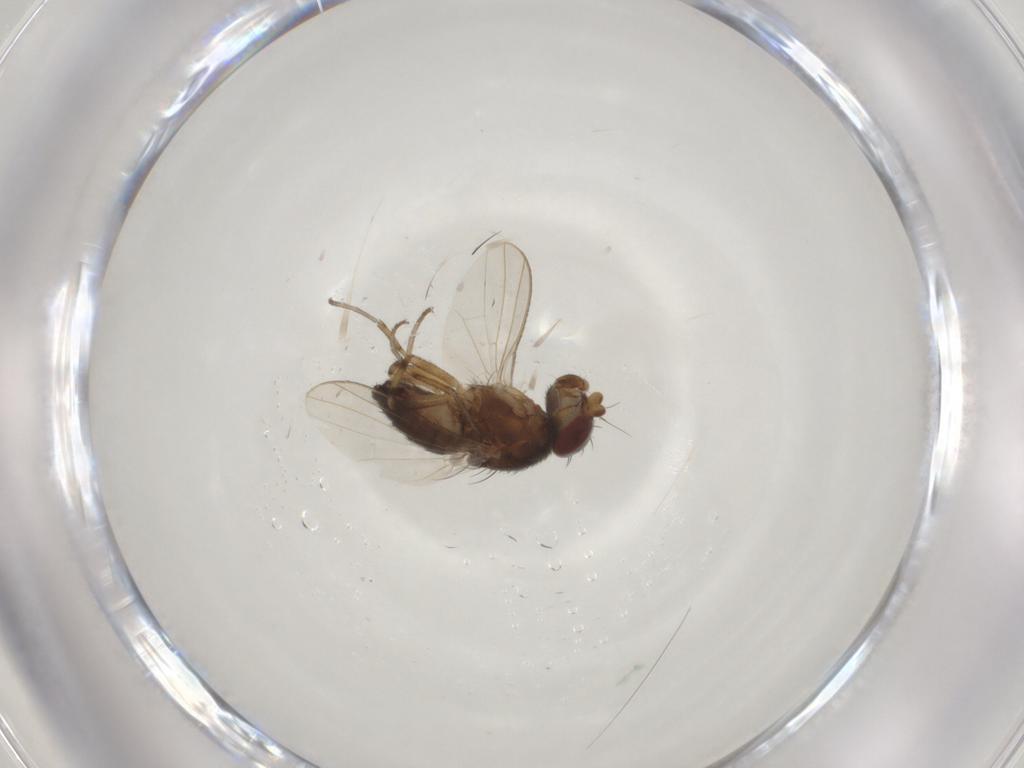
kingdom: Animalia
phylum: Arthropoda
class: Insecta
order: Diptera
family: Heleomyzidae
